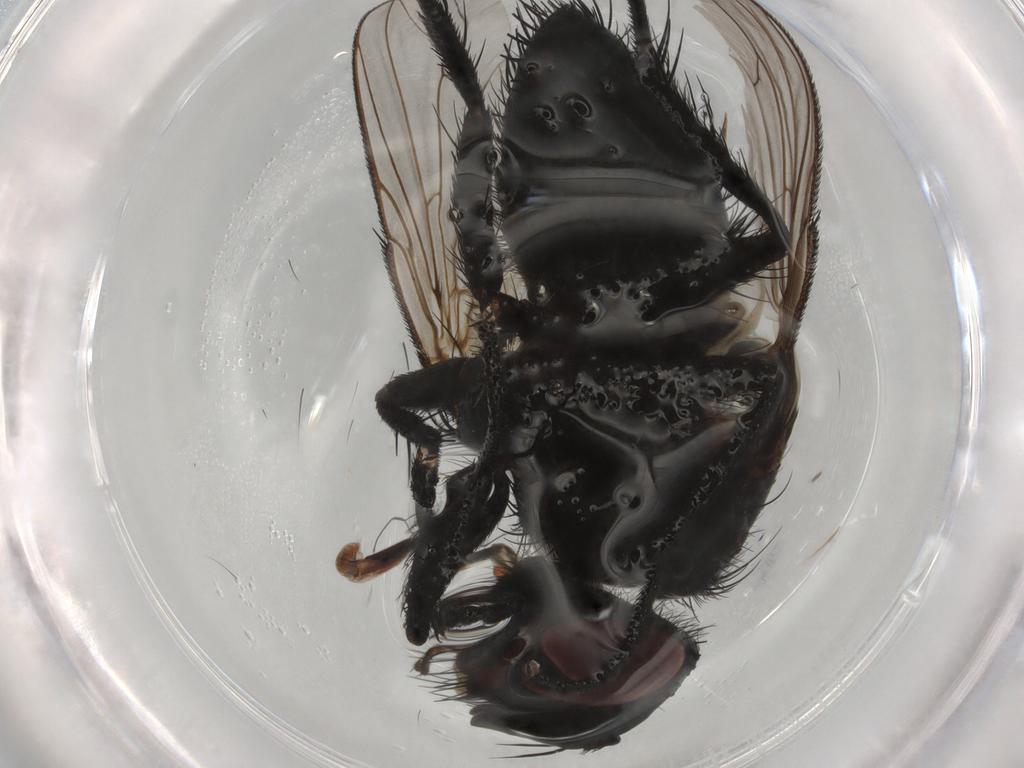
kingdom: Animalia
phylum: Arthropoda
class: Insecta
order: Diptera
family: Tachinidae
